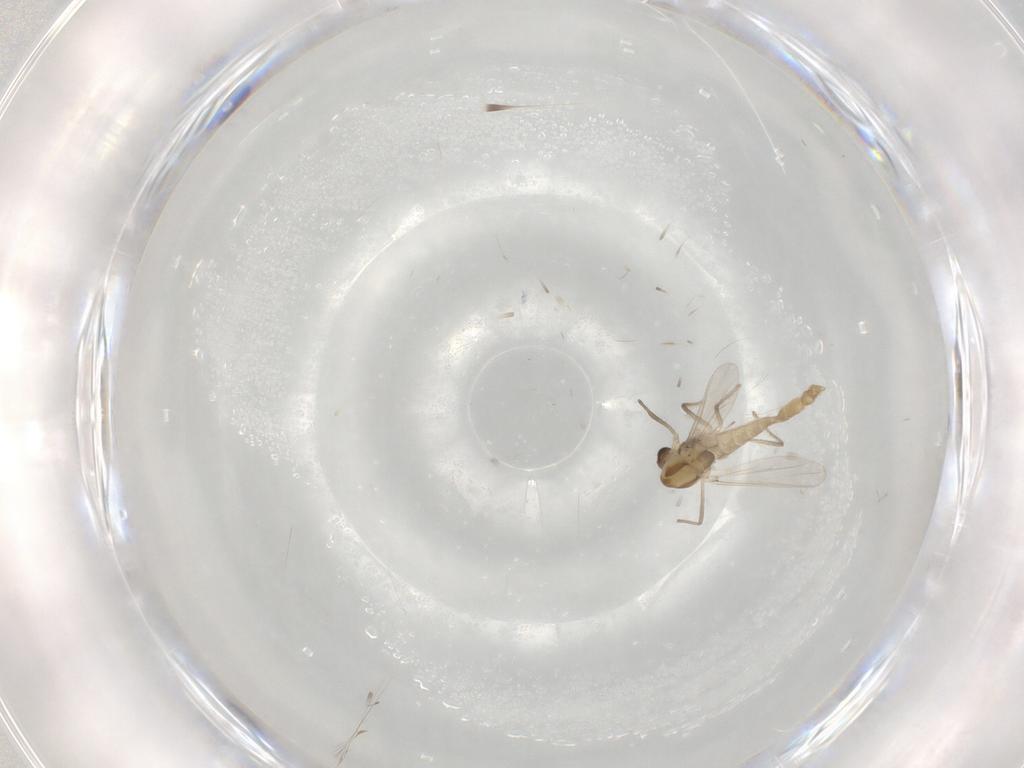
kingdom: Animalia
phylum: Arthropoda
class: Insecta
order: Diptera
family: Chironomidae
